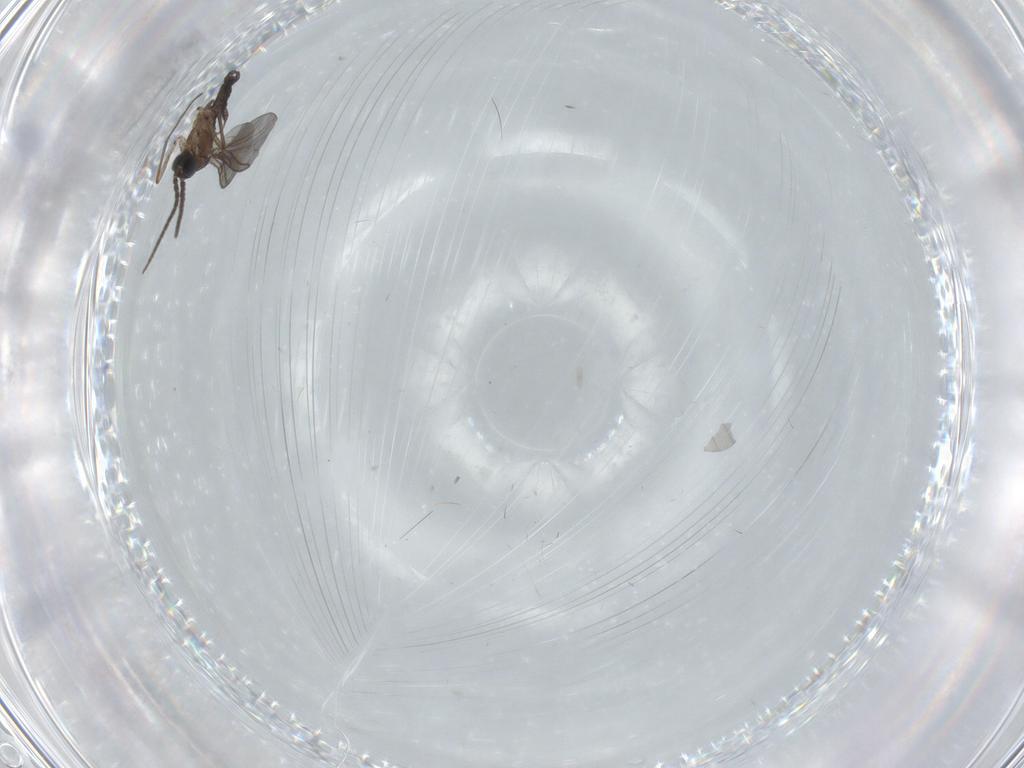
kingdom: Animalia
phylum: Arthropoda
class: Insecta
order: Diptera
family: Sciaridae
